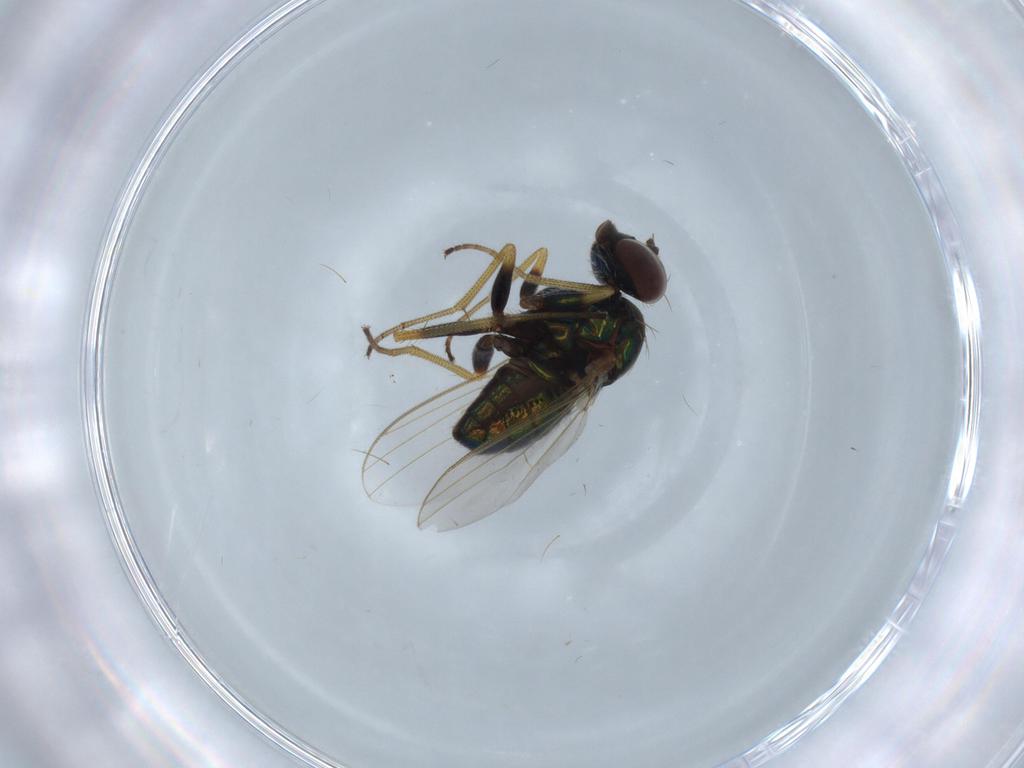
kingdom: Animalia
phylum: Arthropoda
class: Insecta
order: Diptera
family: Dolichopodidae
